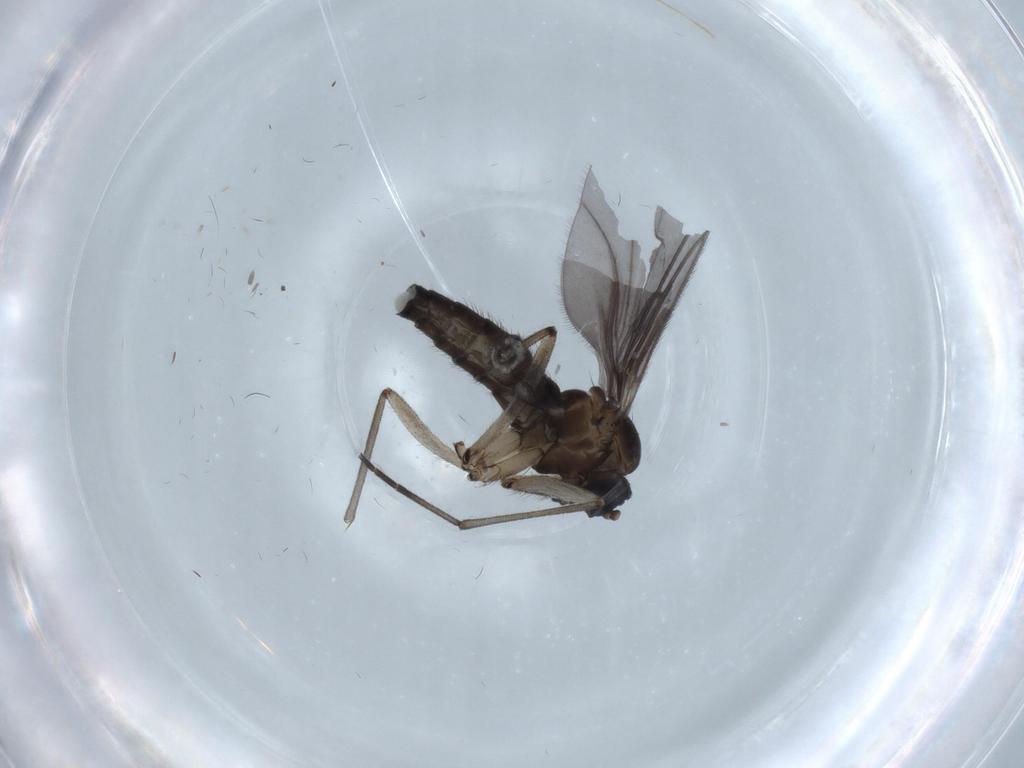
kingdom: Animalia
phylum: Arthropoda
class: Insecta
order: Diptera
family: Sciaridae
